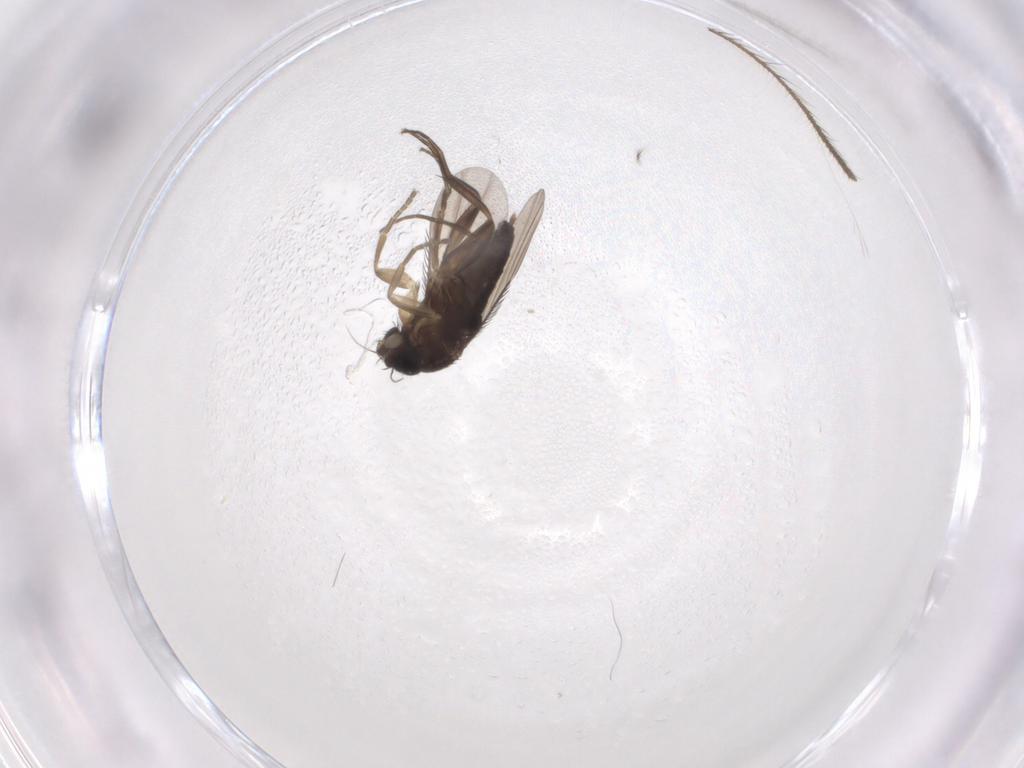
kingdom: Animalia
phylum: Arthropoda
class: Insecta
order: Diptera
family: Phoridae
